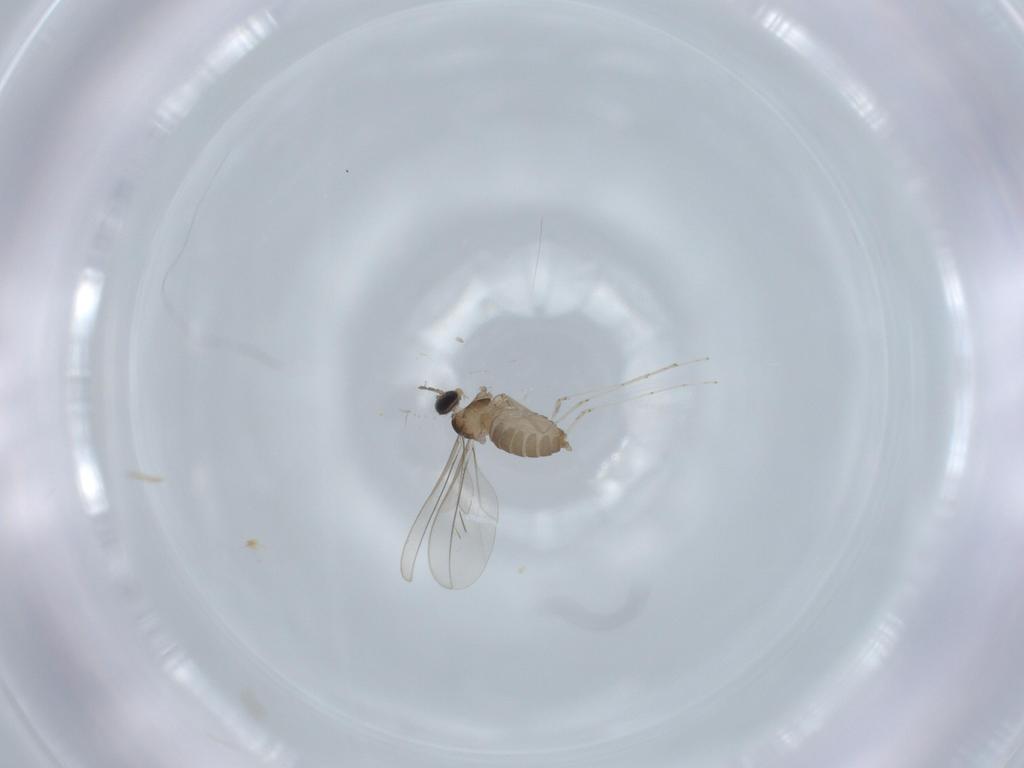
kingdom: Animalia
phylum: Arthropoda
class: Insecta
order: Diptera
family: Cecidomyiidae
